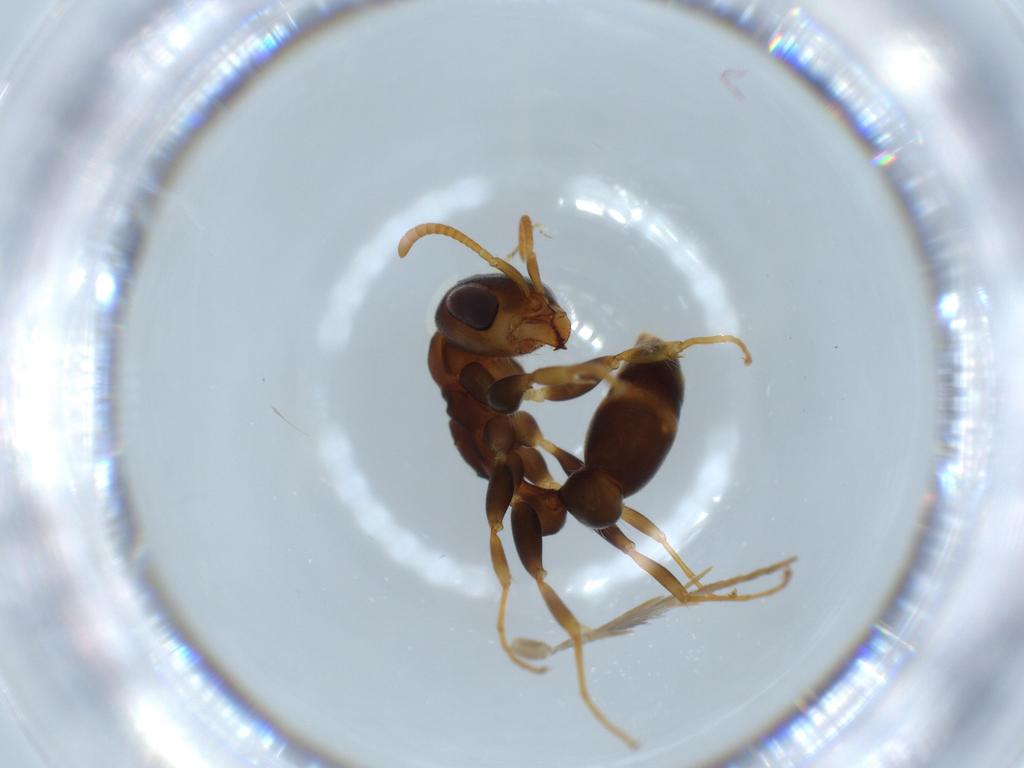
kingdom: Animalia
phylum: Arthropoda
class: Insecta
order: Hymenoptera
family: Formicidae
